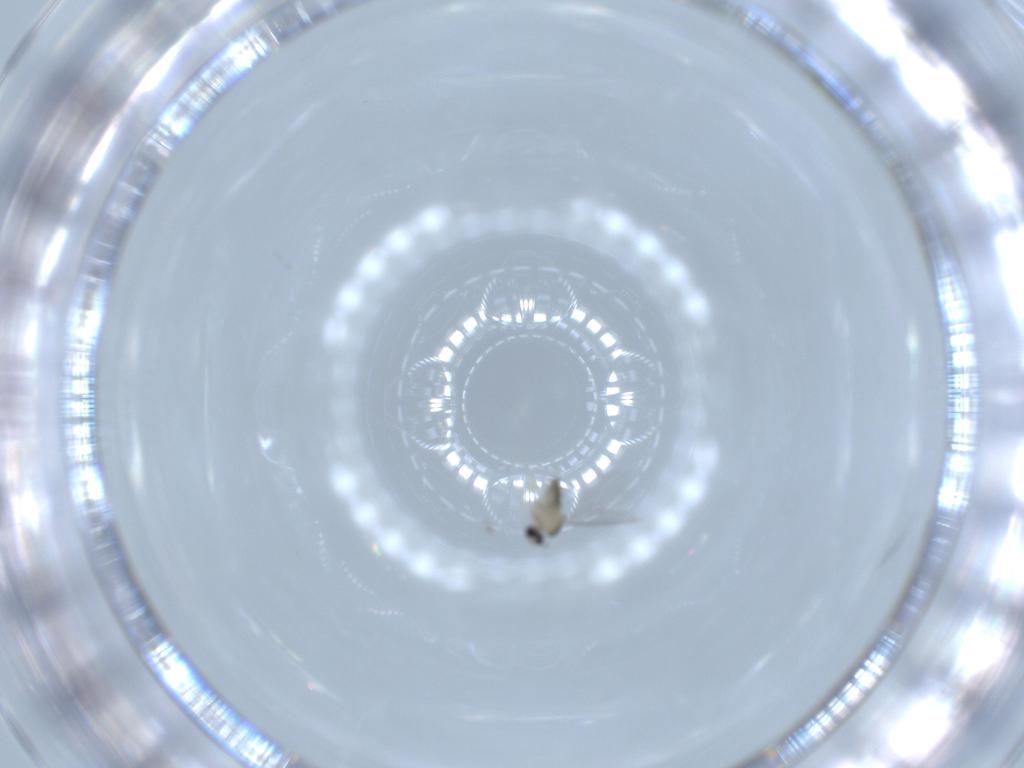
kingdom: Animalia
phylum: Arthropoda
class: Insecta
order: Diptera
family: Cecidomyiidae
